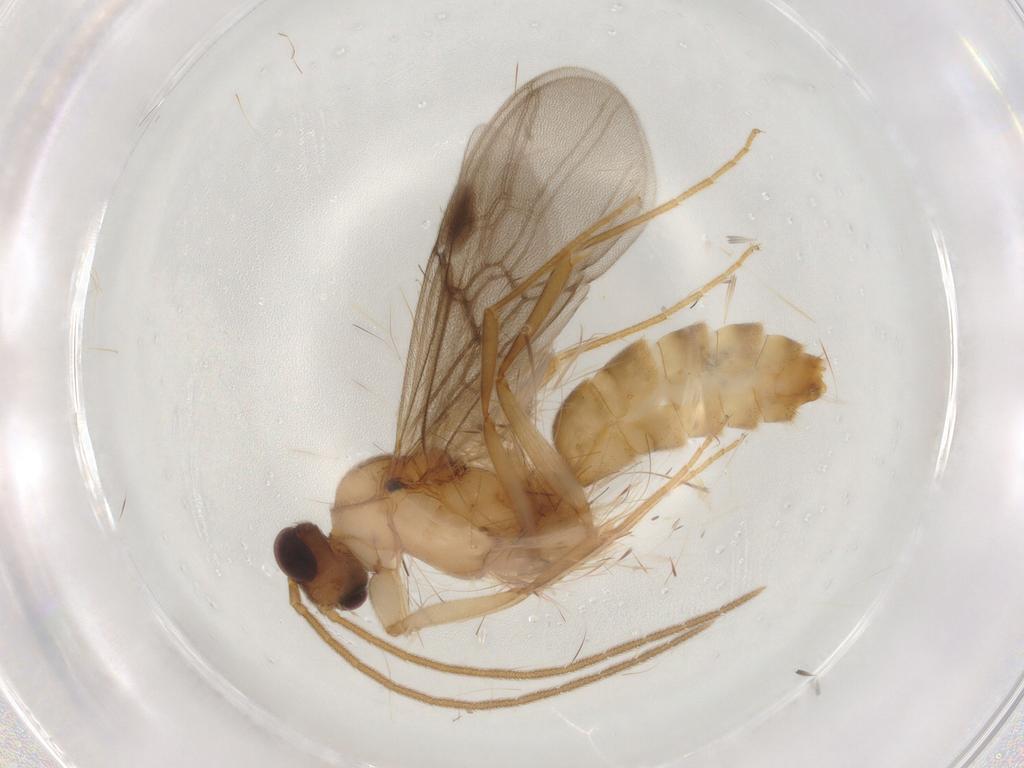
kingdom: Animalia
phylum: Arthropoda
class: Insecta
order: Hymenoptera
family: Formicidae
